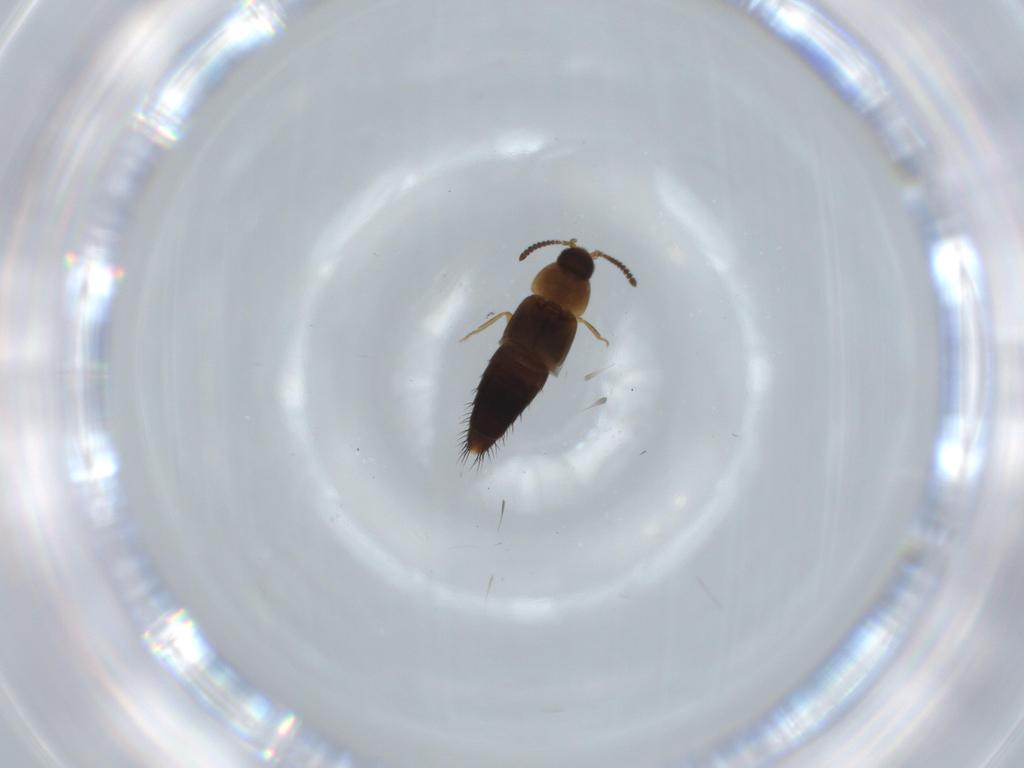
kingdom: Animalia
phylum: Arthropoda
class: Insecta
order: Coleoptera
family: Staphylinidae
